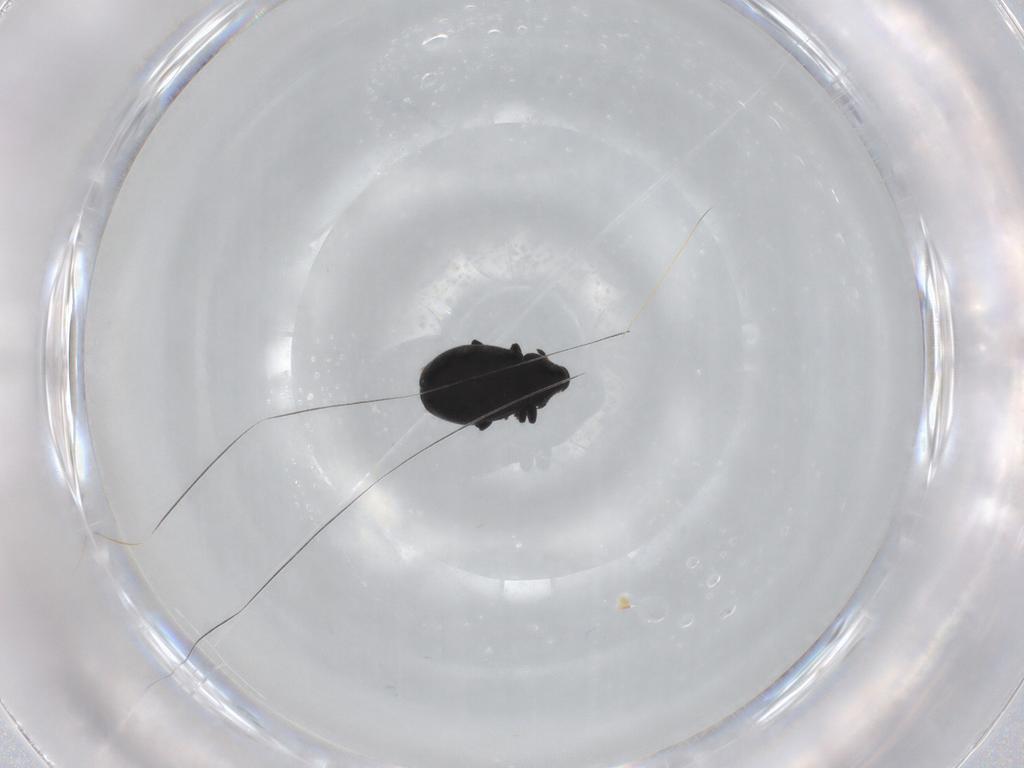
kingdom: Animalia
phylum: Arthropoda
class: Insecta
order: Coleoptera
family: Curculionidae
